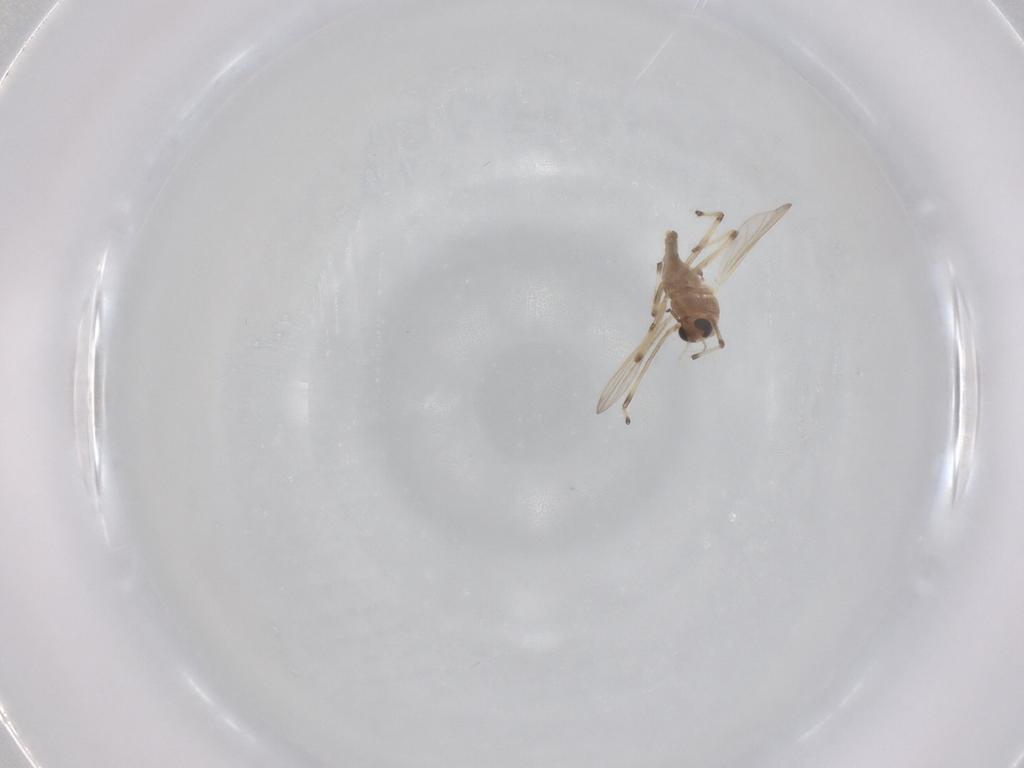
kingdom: Animalia
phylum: Arthropoda
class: Insecta
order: Diptera
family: Chironomidae
